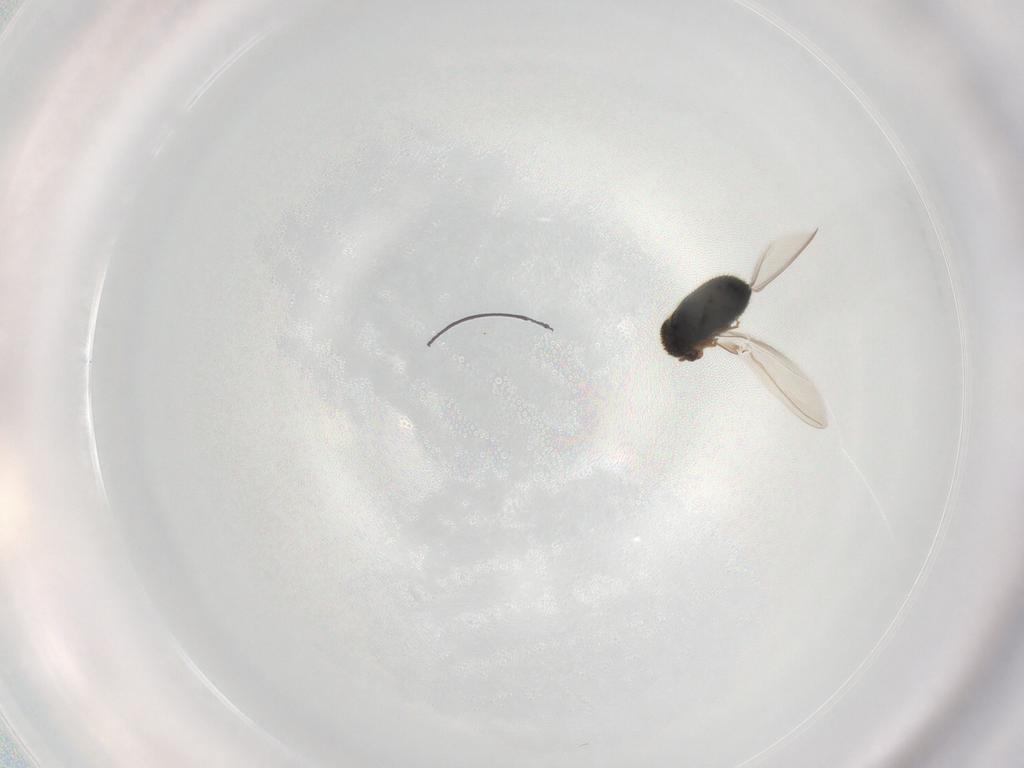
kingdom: Animalia
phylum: Arthropoda
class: Insecta
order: Coleoptera
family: Curculionidae
